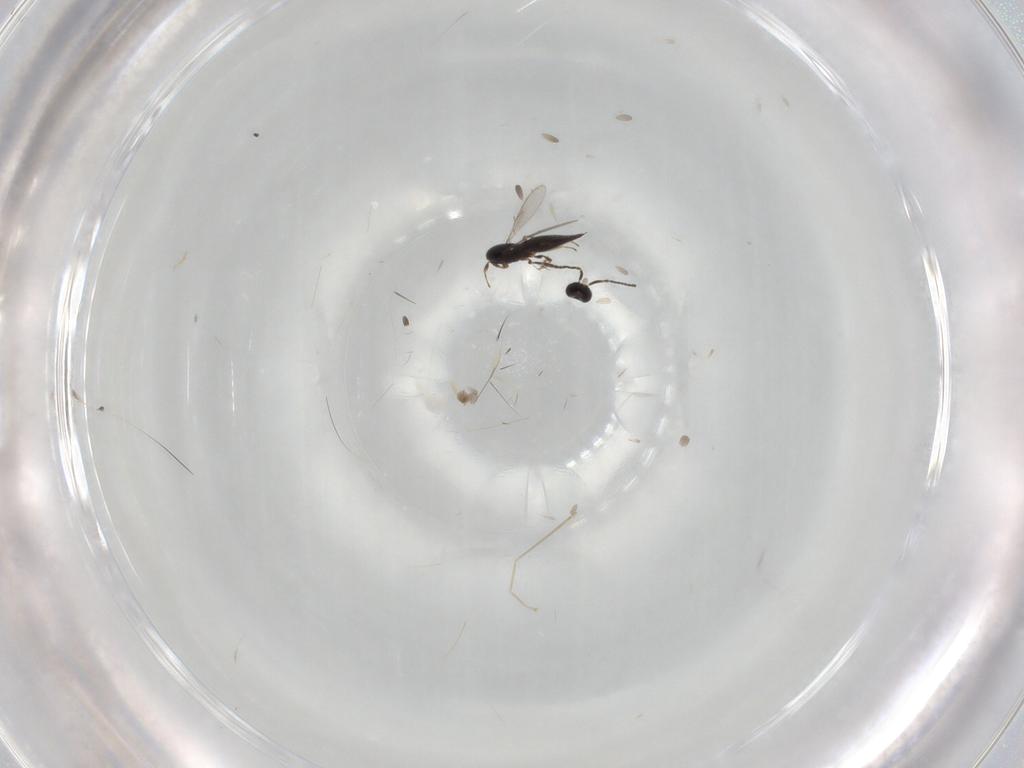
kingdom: Animalia
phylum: Arthropoda
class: Insecta
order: Hymenoptera
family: Scelionidae
